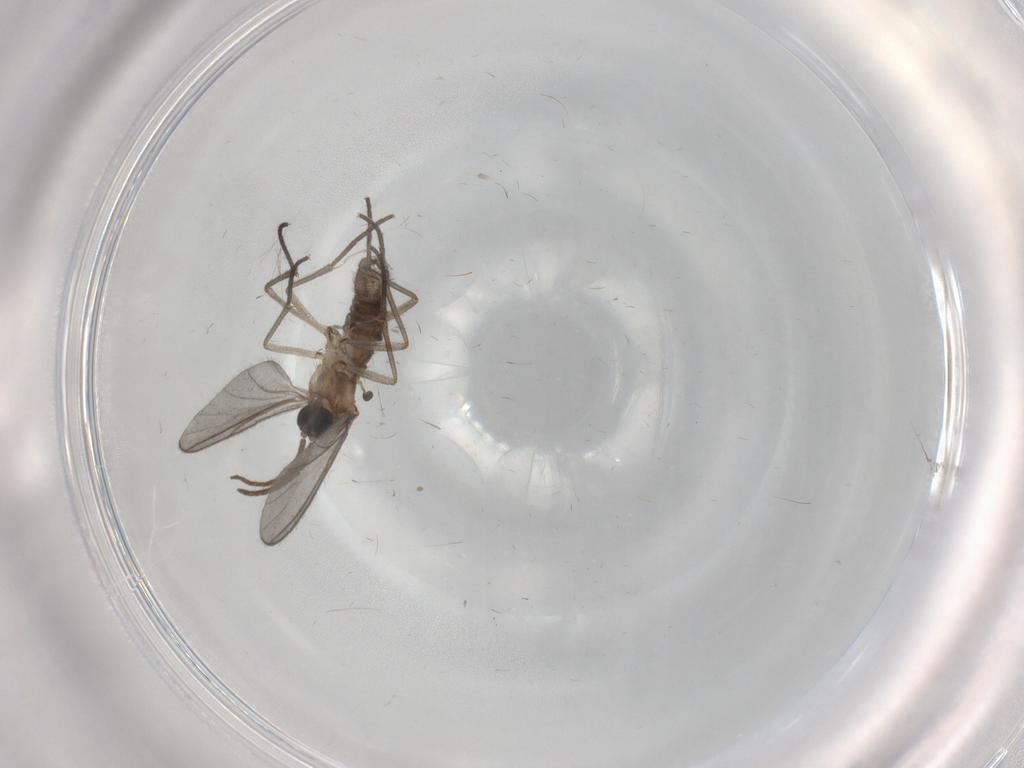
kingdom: Animalia
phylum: Arthropoda
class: Insecta
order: Diptera
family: Cecidomyiidae
